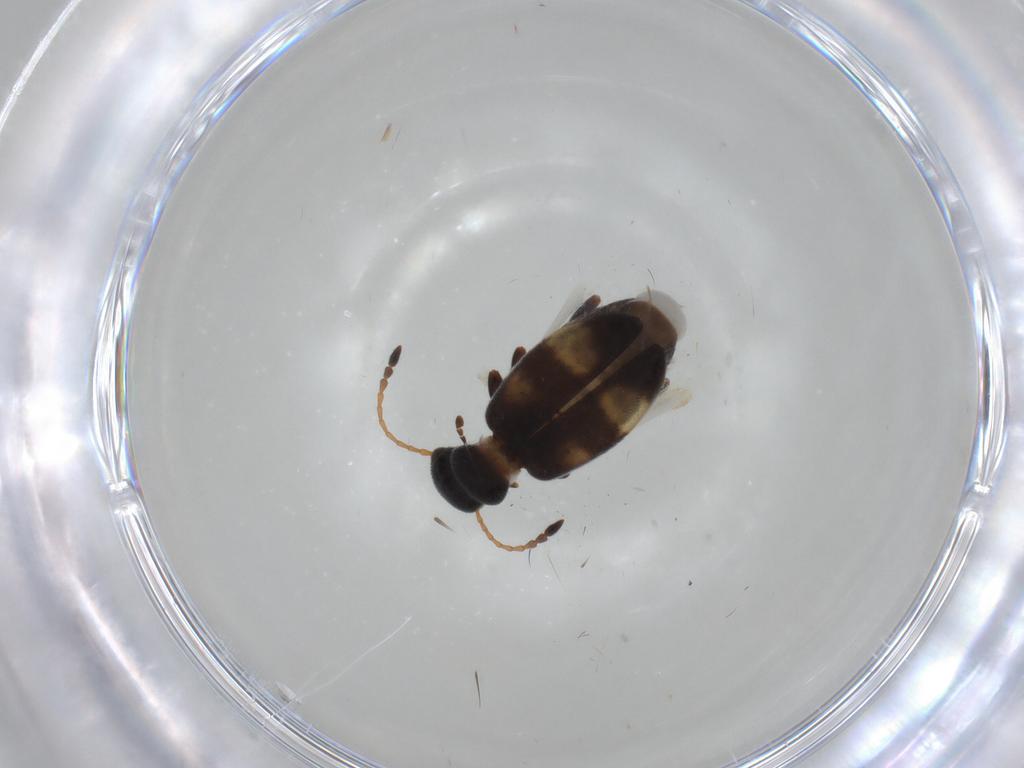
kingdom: Animalia
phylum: Arthropoda
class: Insecta
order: Coleoptera
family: Anthicidae
